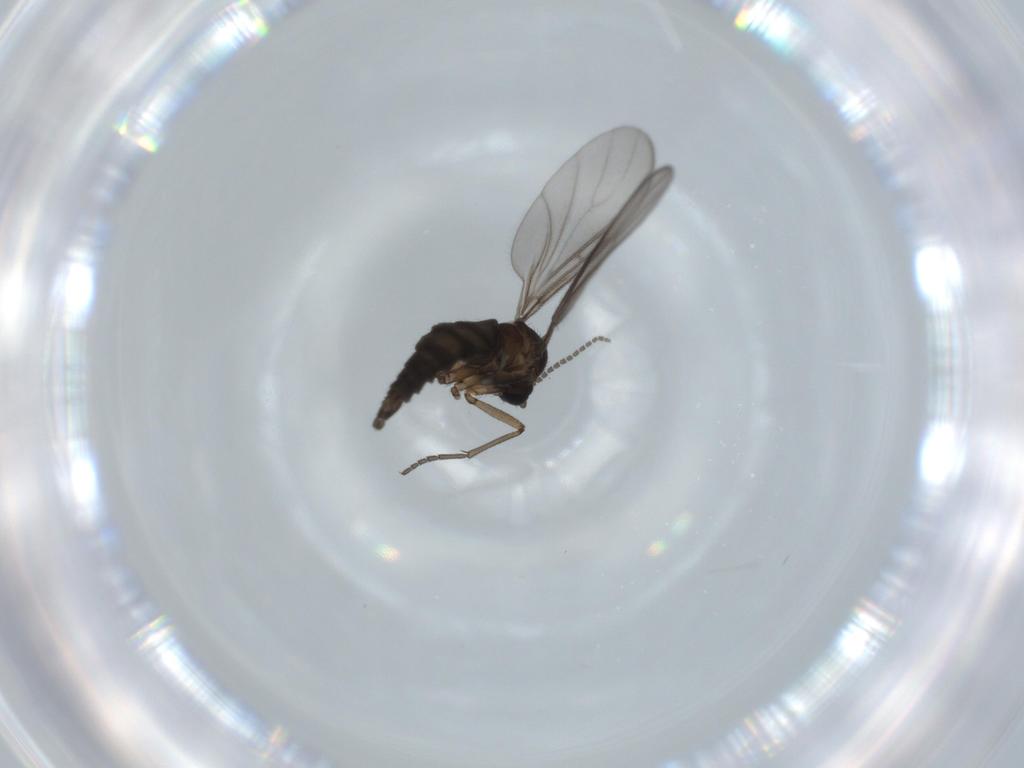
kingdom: Animalia
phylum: Arthropoda
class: Insecta
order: Diptera
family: Sciaridae
